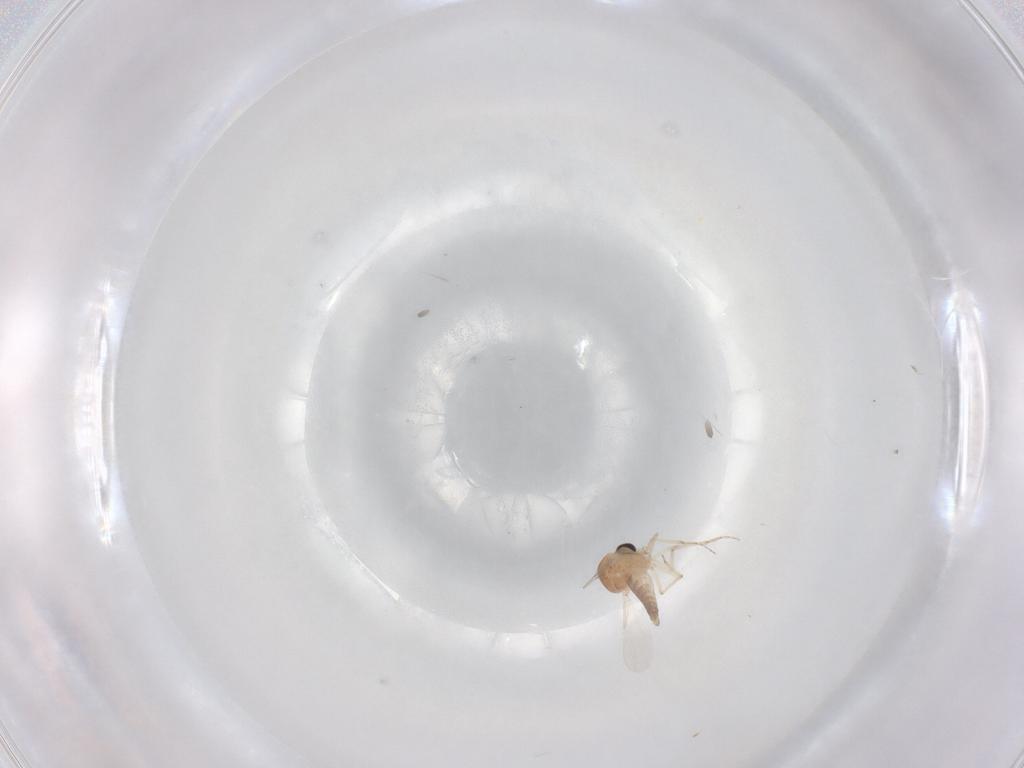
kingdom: Animalia
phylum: Arthropoda
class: Insecta
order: Diptera
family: Ceratopogonidae
